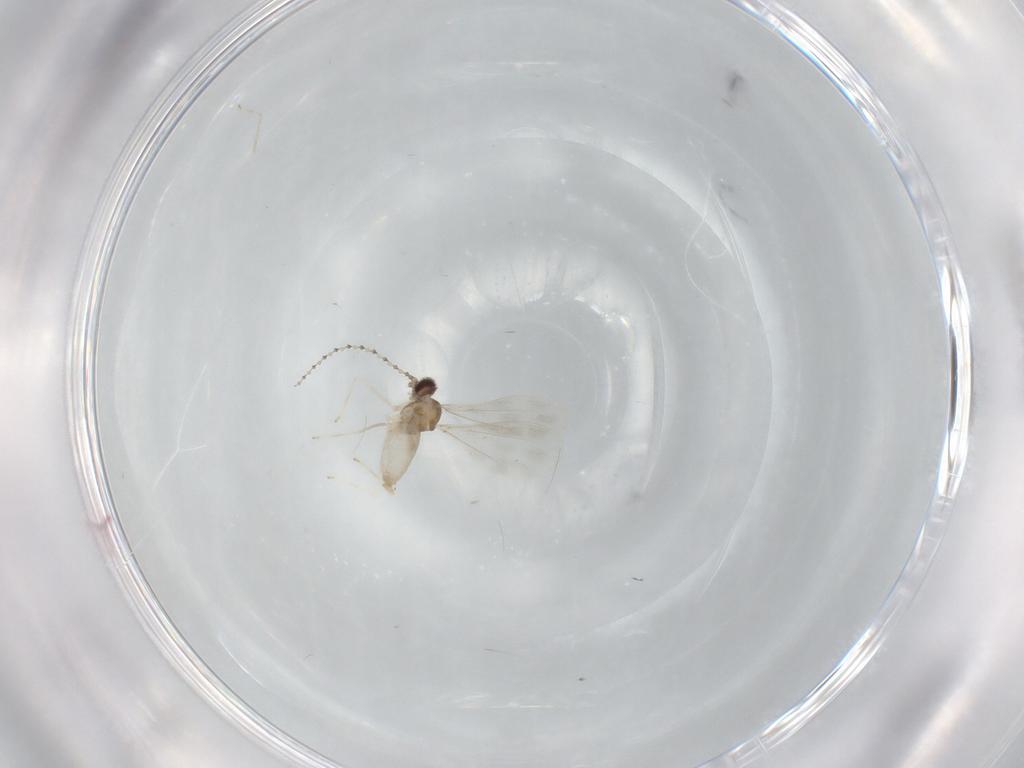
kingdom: Animalia
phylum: Arthropoda
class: Insecta
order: Diptera
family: Cecidomyiidae
